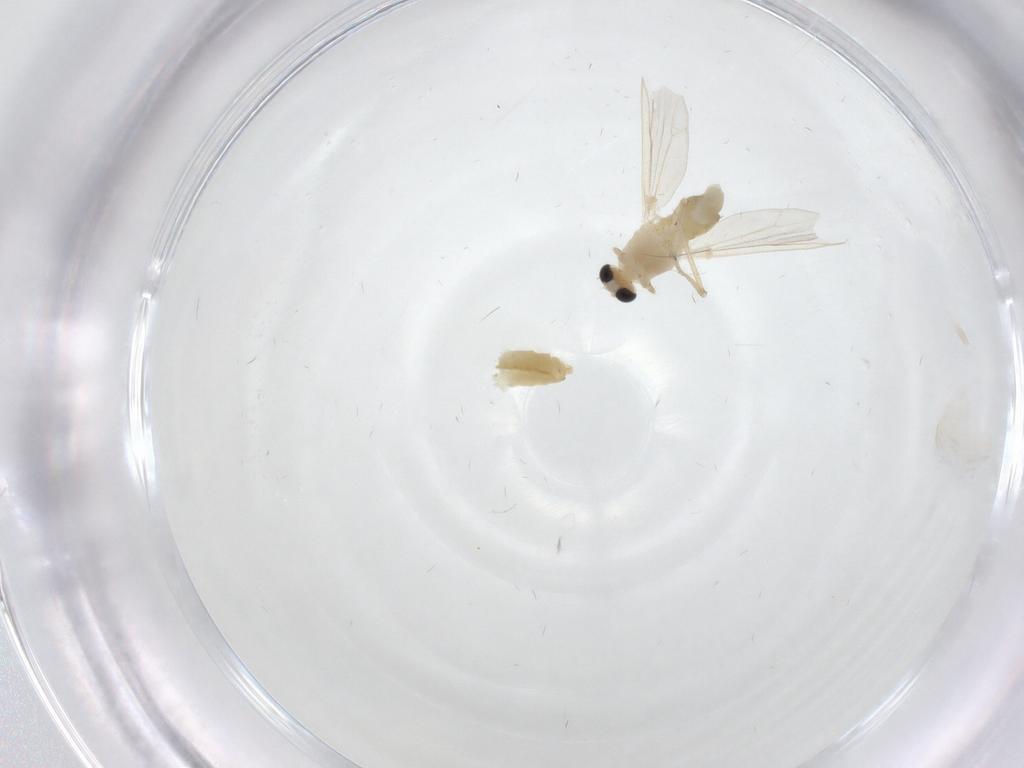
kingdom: Animalia
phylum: Arthropoda
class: Insecta
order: Diptera
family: Chironomidae
